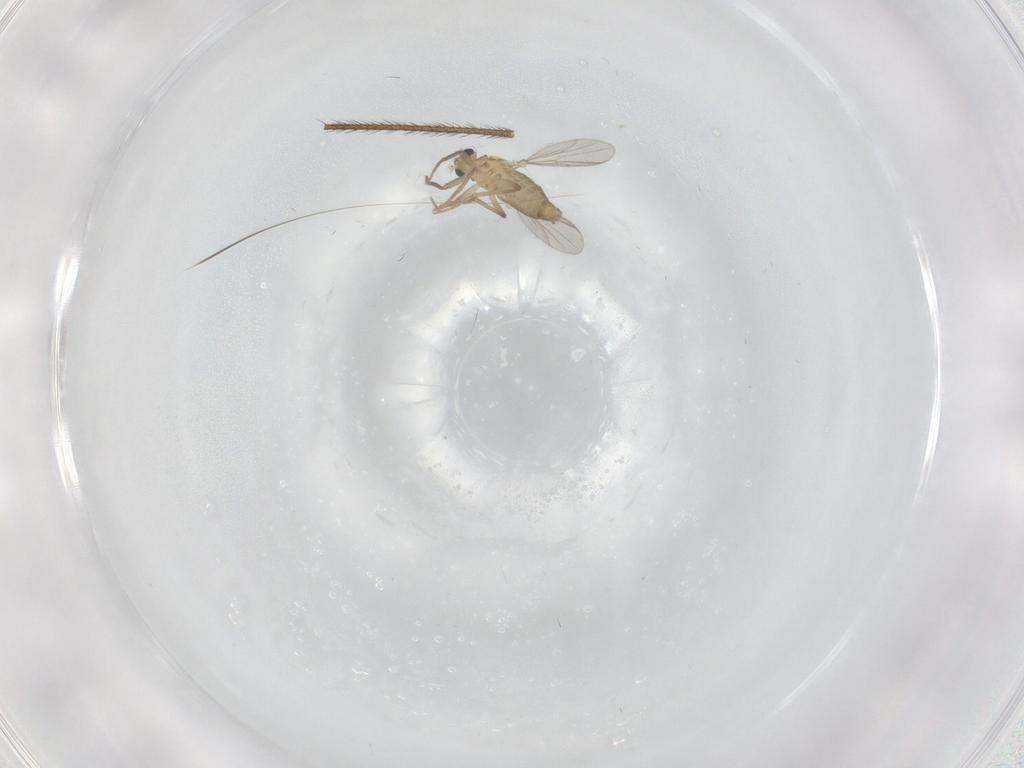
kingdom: Animalia
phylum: Arthropoda
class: Insecta
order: Diptera
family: Chironomidae
